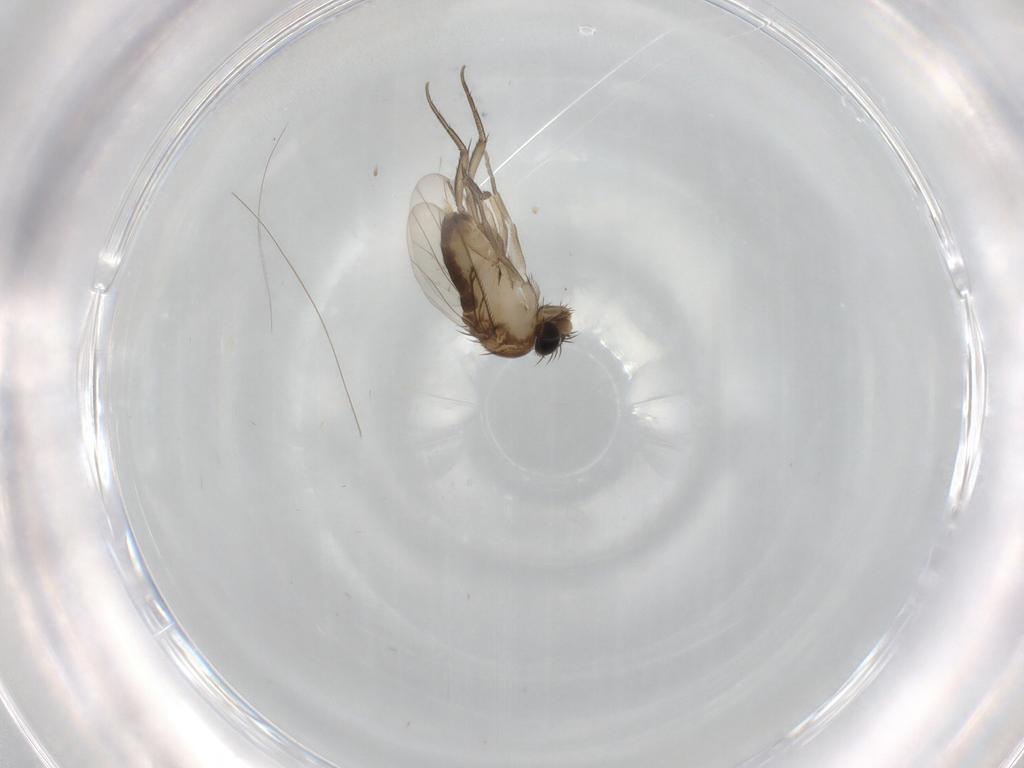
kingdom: Animalia
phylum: Arthropoda
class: Insecta
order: Diptera
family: Phoridae
